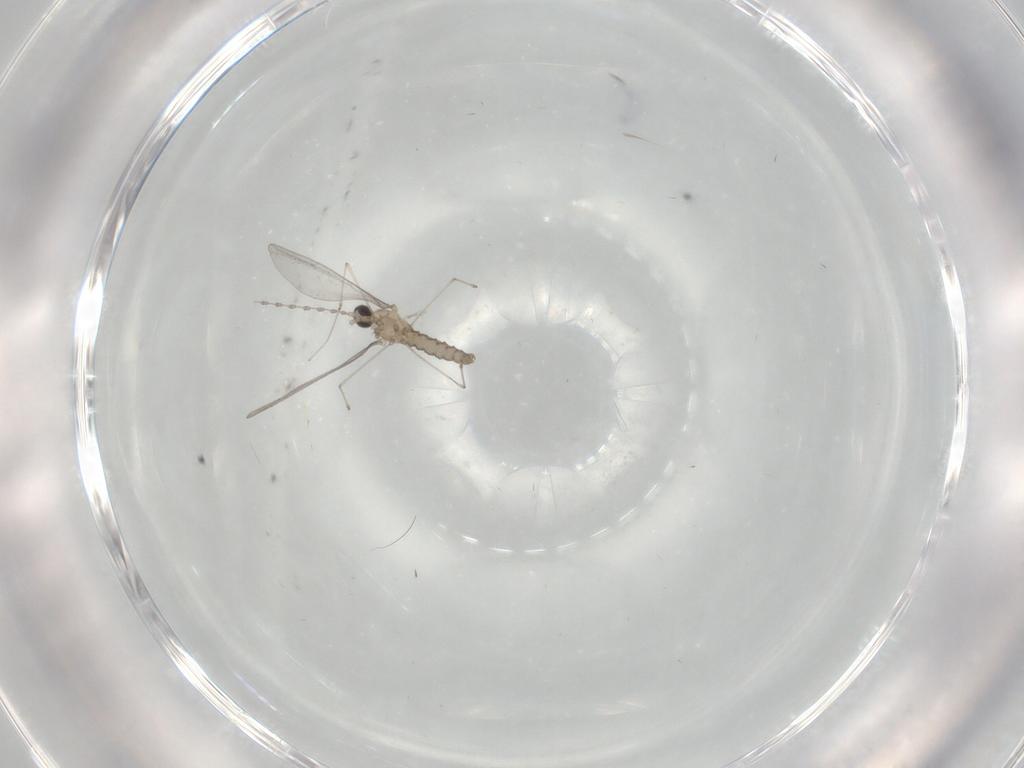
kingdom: Animalia
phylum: Arthropoda
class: Insecta
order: Diptera
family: Phoridae
